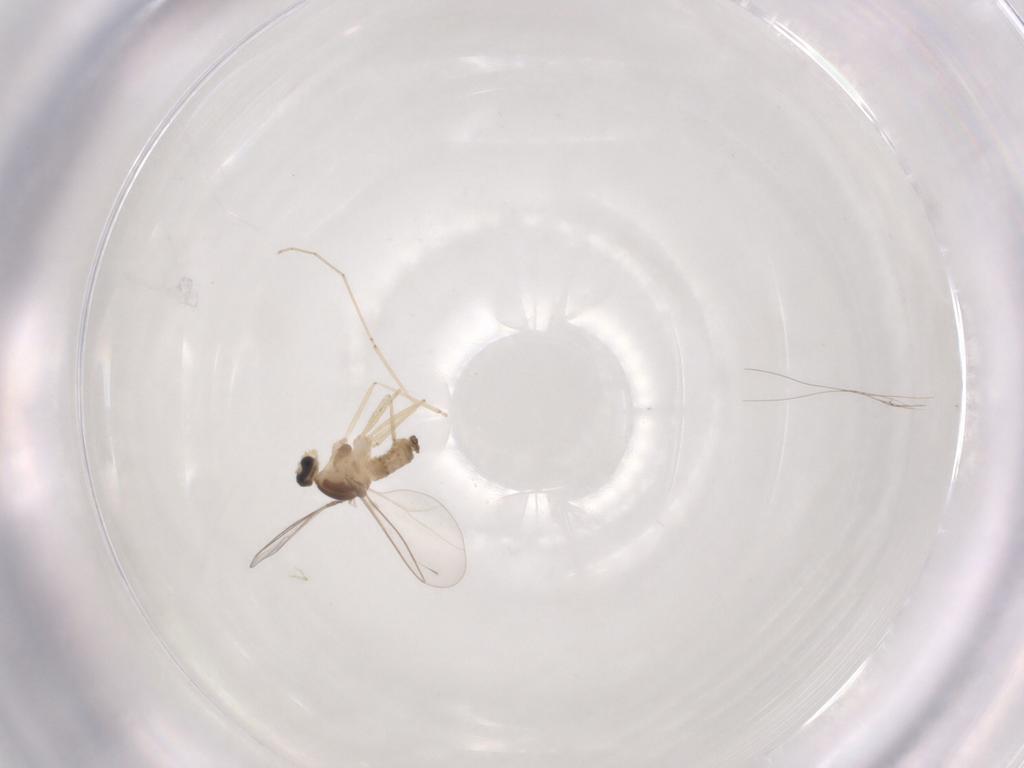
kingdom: Animalia
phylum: Arthropoda
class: Insecta
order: Diptera
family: Cecidomyiidae
